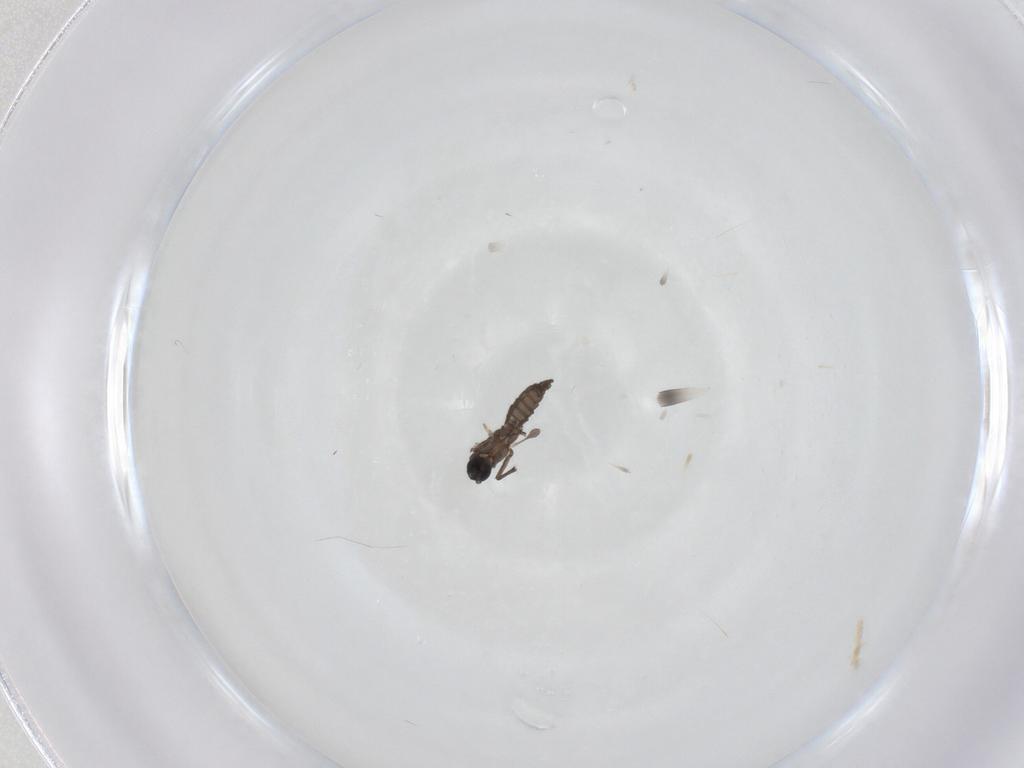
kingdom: Animalia
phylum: Arthropoda
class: Insecta
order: Diptera
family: Sciaridae
